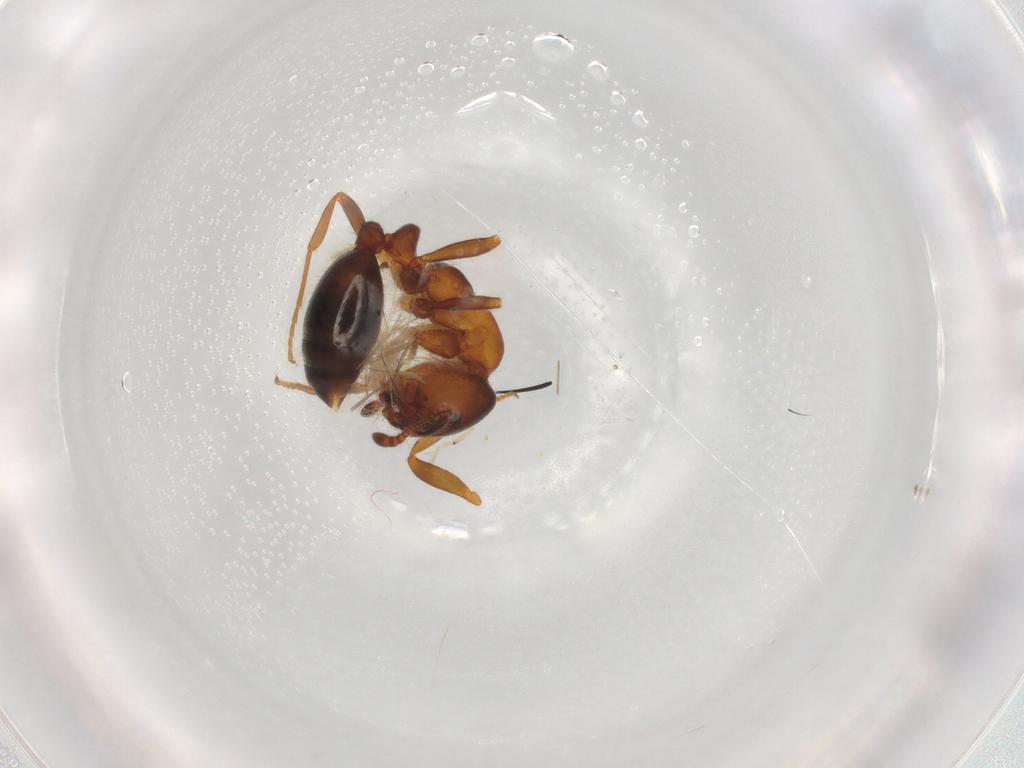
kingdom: Animalia
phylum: Arthropoda
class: Insecta
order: Hymenoptera
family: Formicidae
